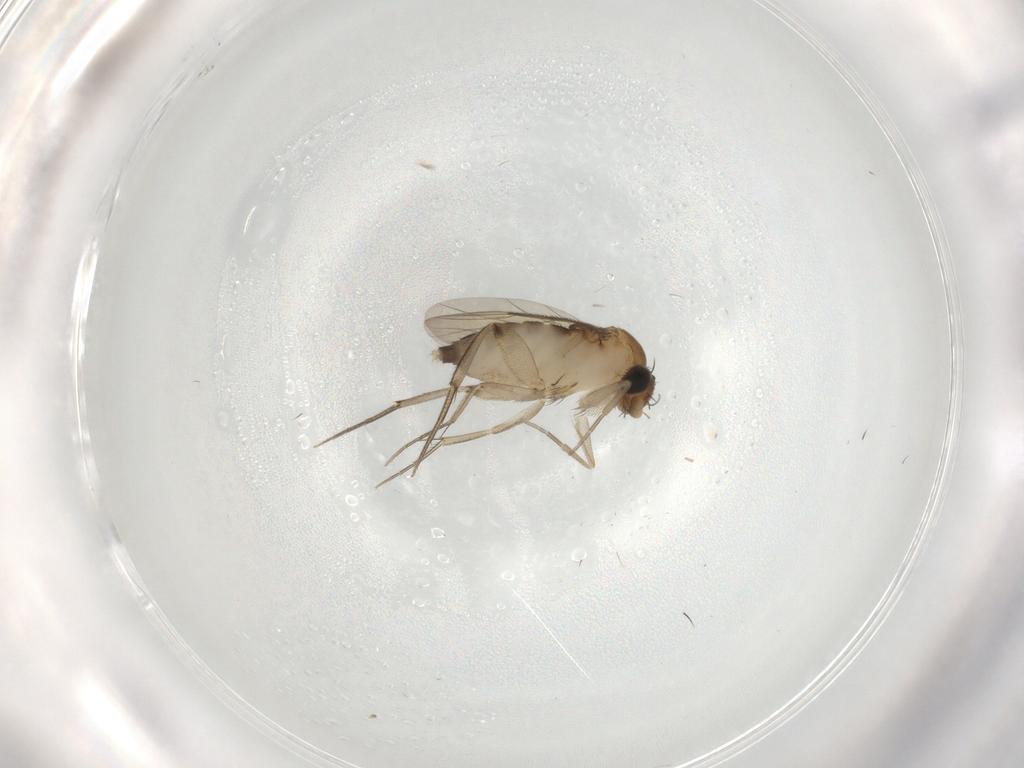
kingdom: Animalia
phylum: Arthropoda
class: Insecta
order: Diptera
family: Phoridae
